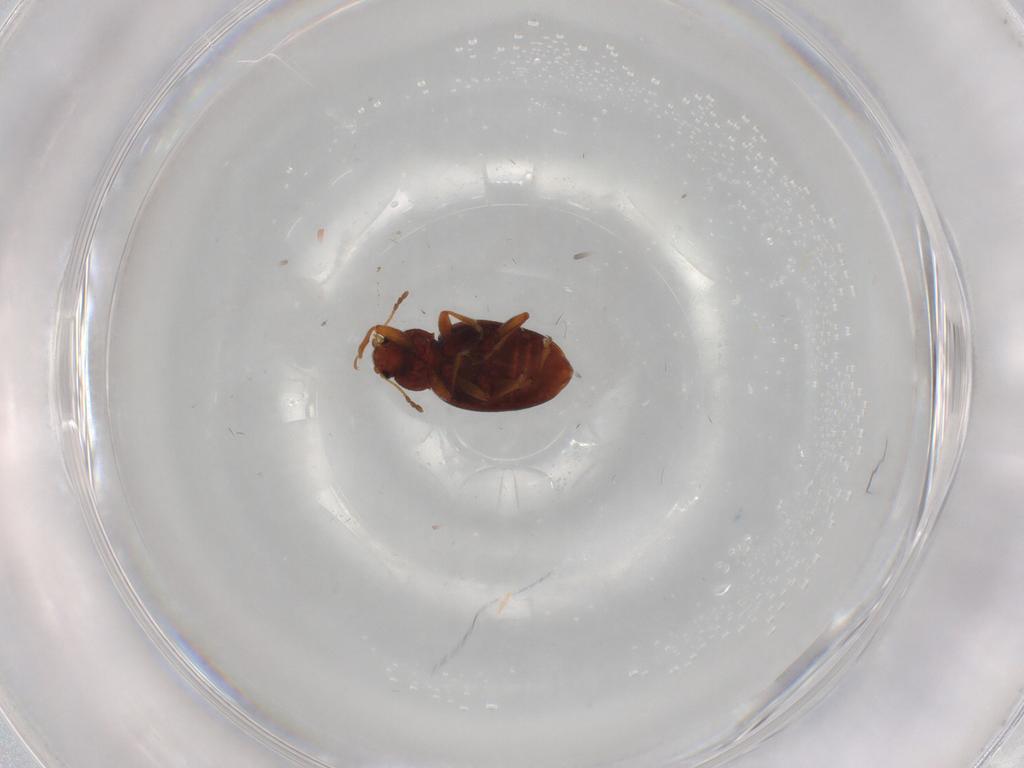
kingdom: Animalia
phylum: Arthropoda
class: Insecta
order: Coleoptera
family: Latridiidae
